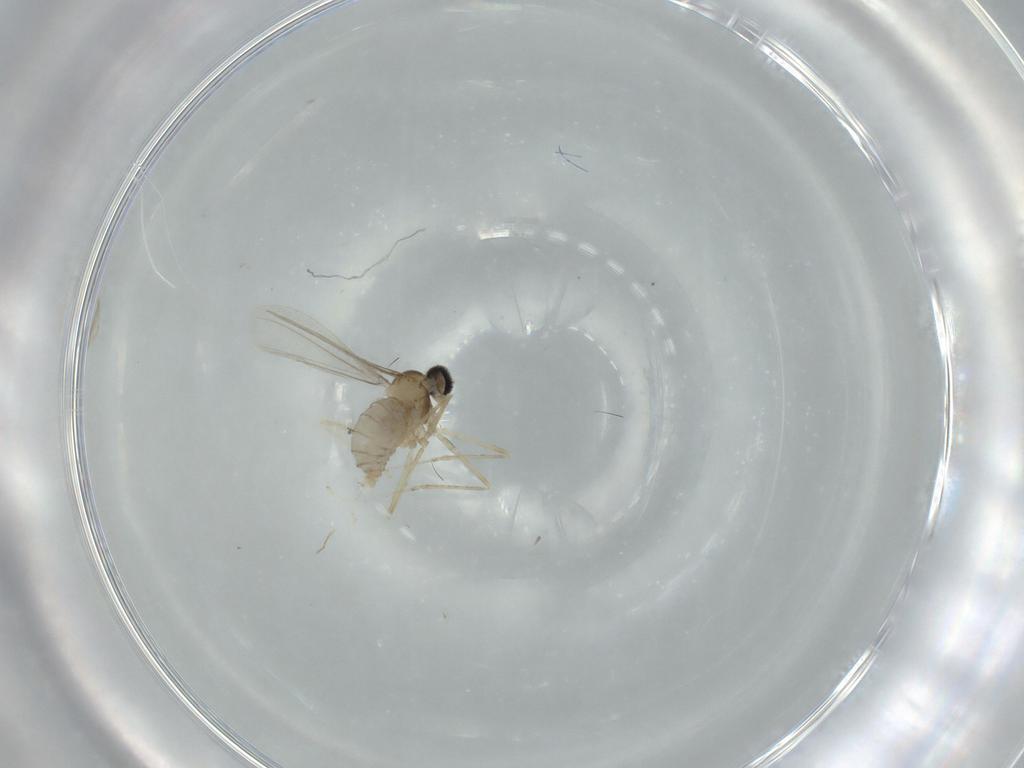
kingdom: Animalia
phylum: Arthropoda
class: Insecta
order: Diptera
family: Cecidomyiidae
